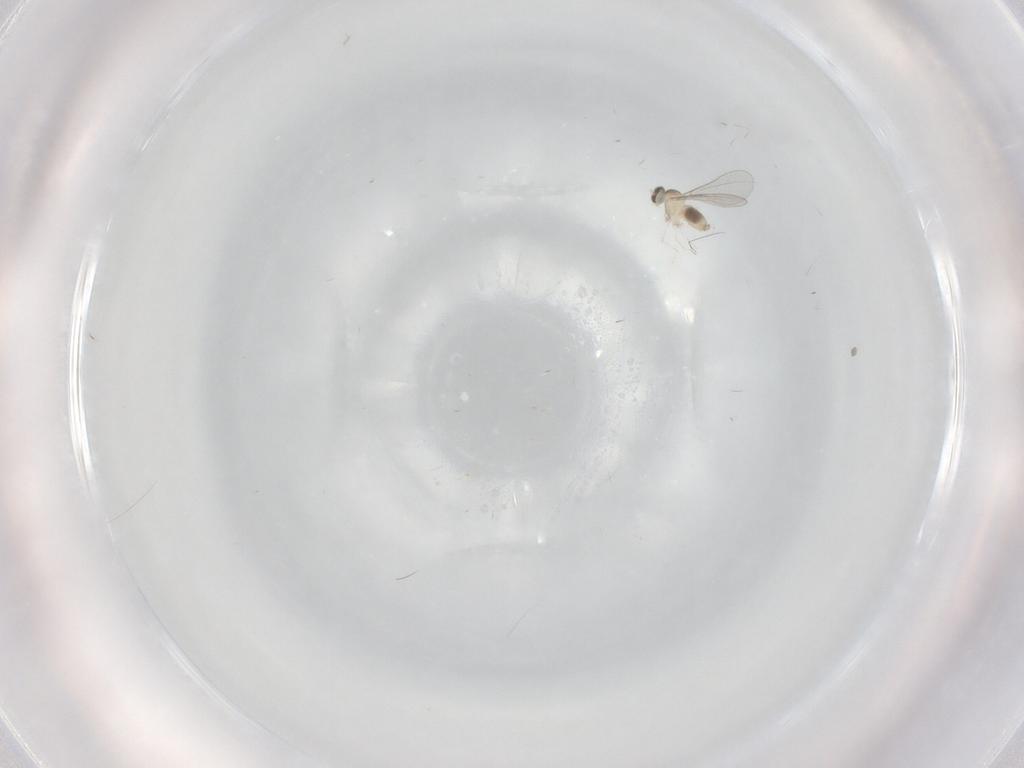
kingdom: Animalia
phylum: Arthropoda
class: Insecta
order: Diptera
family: Cecidomyiidae
